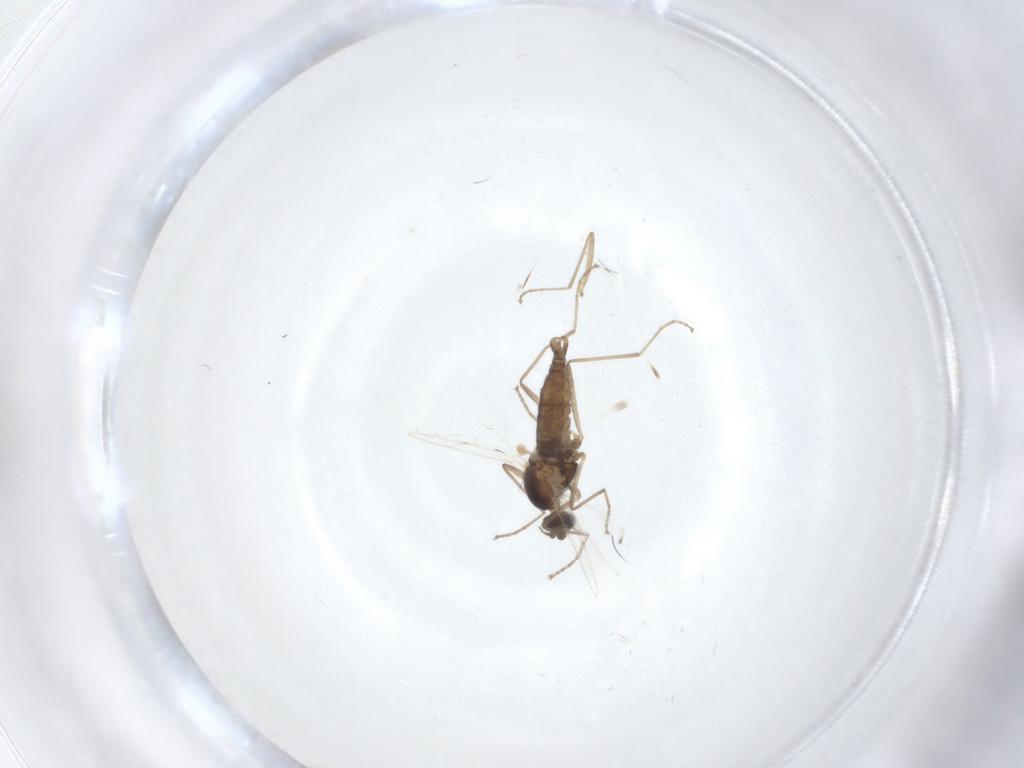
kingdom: Animalia
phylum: Arthropoda
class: Insecta
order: Diptera
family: Cecidomyiidae
